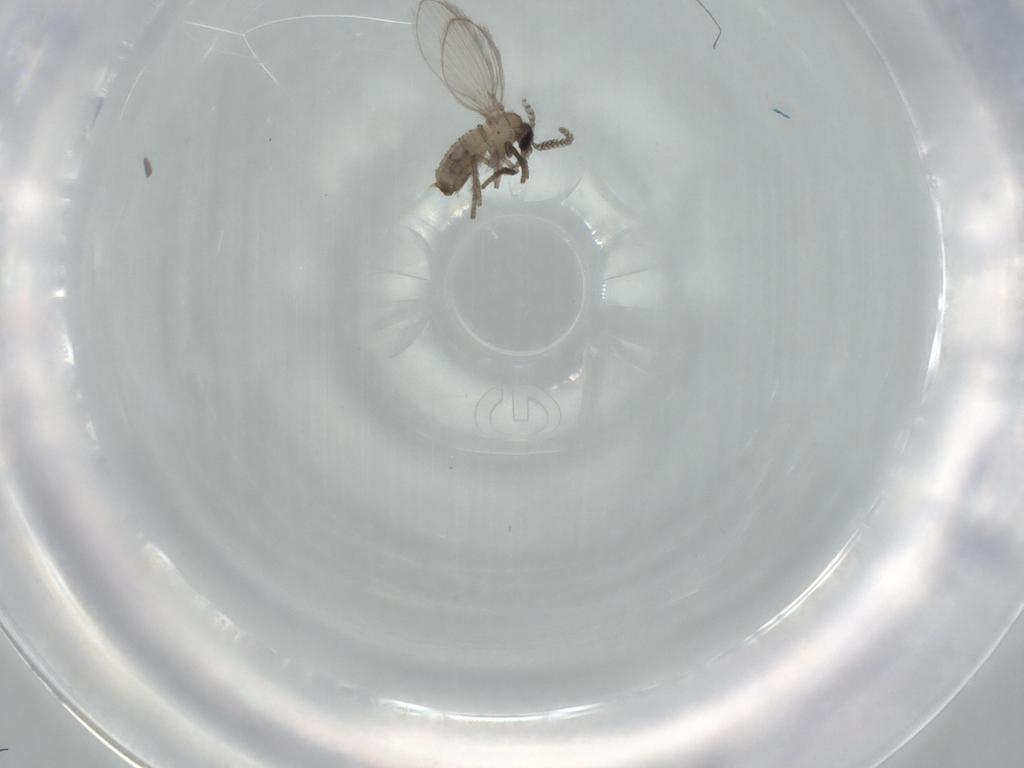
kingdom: Animalia
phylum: Arthropoda
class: Insecta
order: Diptera
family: Psychodidae
